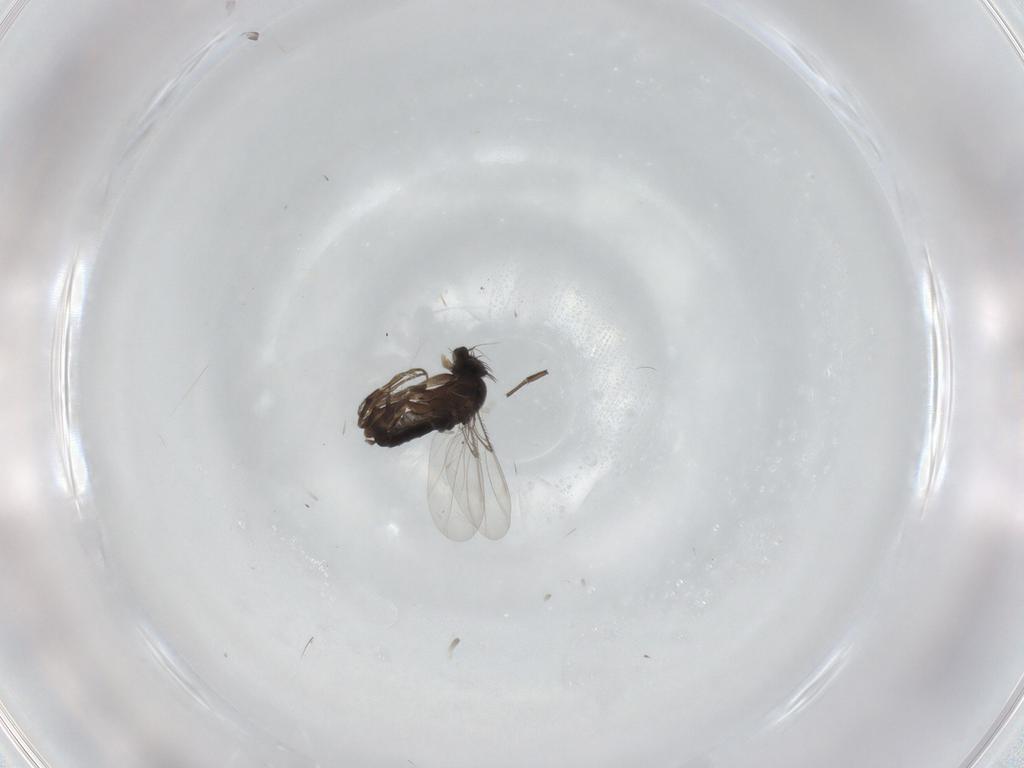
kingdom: Animalia
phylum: Arthropoda
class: Insecta
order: Diptera
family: Phoridae
